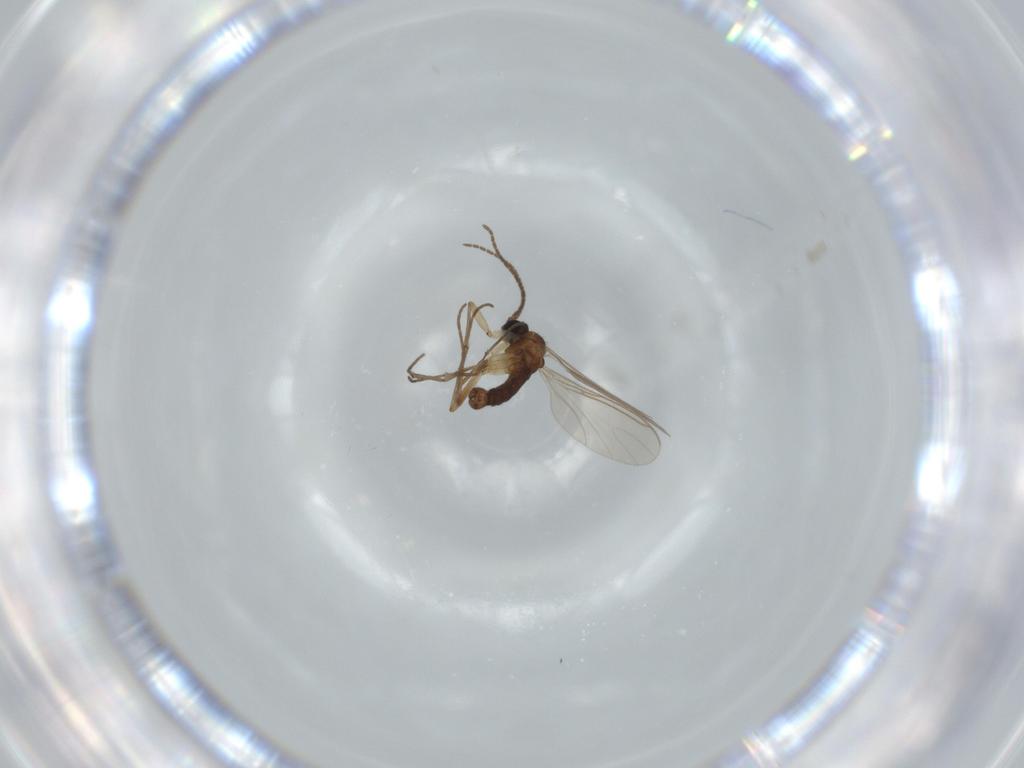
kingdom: Animalia
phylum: Arthropoda
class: Insecta
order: Diptera
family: Sciaridae
